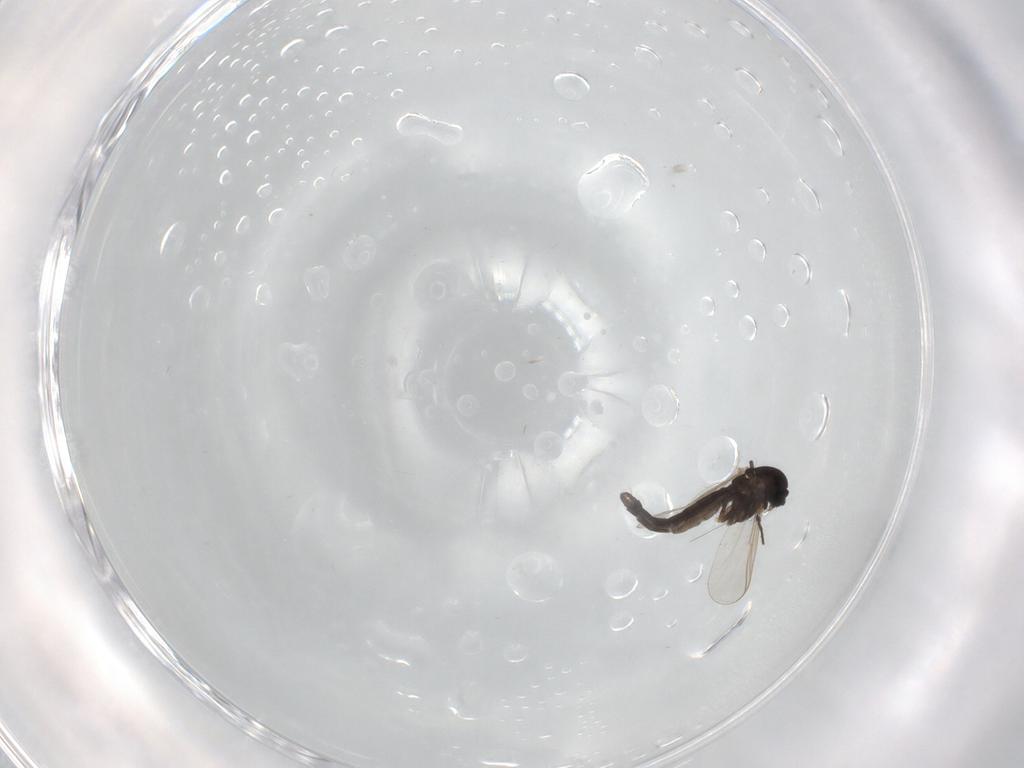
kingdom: Animalia
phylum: Arthropoda
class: Insecta
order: Diptera
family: Chironomidae
